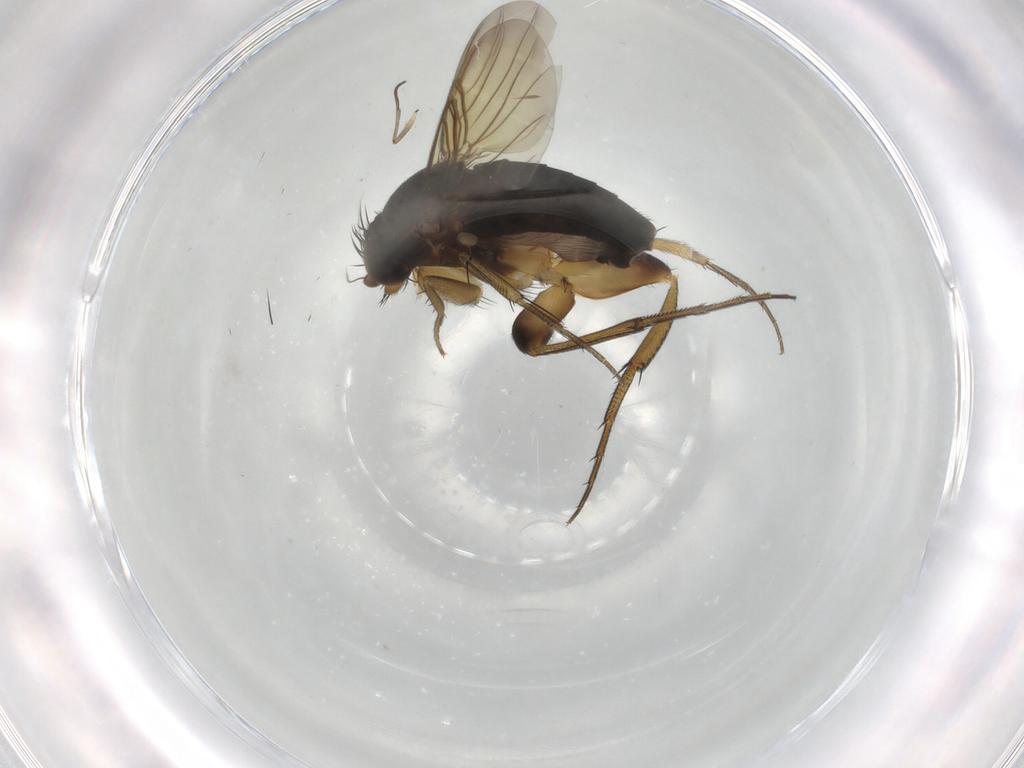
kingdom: Animalia
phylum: Arthropoda
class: Insecta
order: Diptera
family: Phoridae
